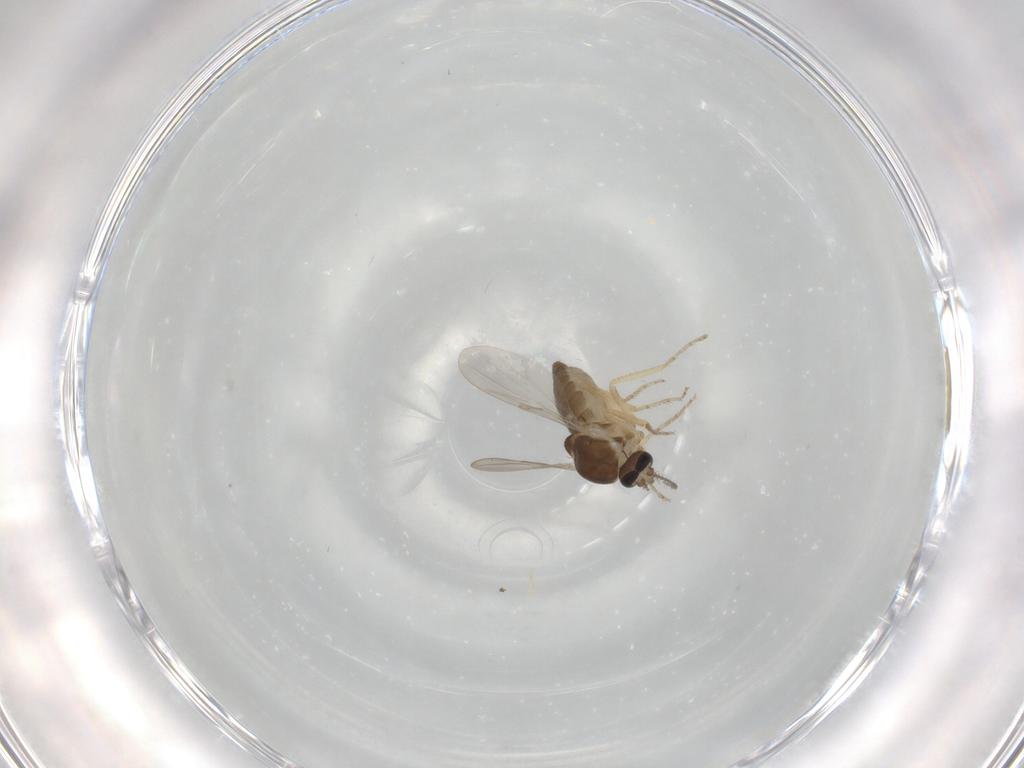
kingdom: Animalia
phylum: Arthropoda
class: Insecta
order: Diptera
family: Ceratopogonidae
